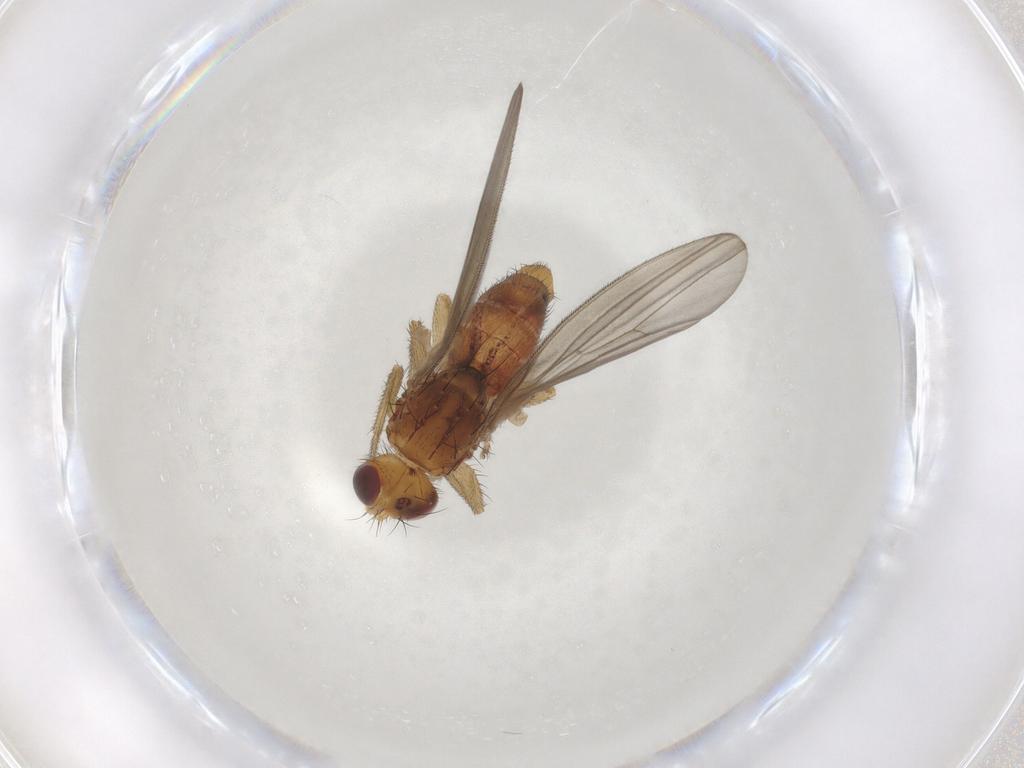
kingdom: Animalia
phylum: Arthropoda
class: Insecta
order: Diptera
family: Natalimyzidae
